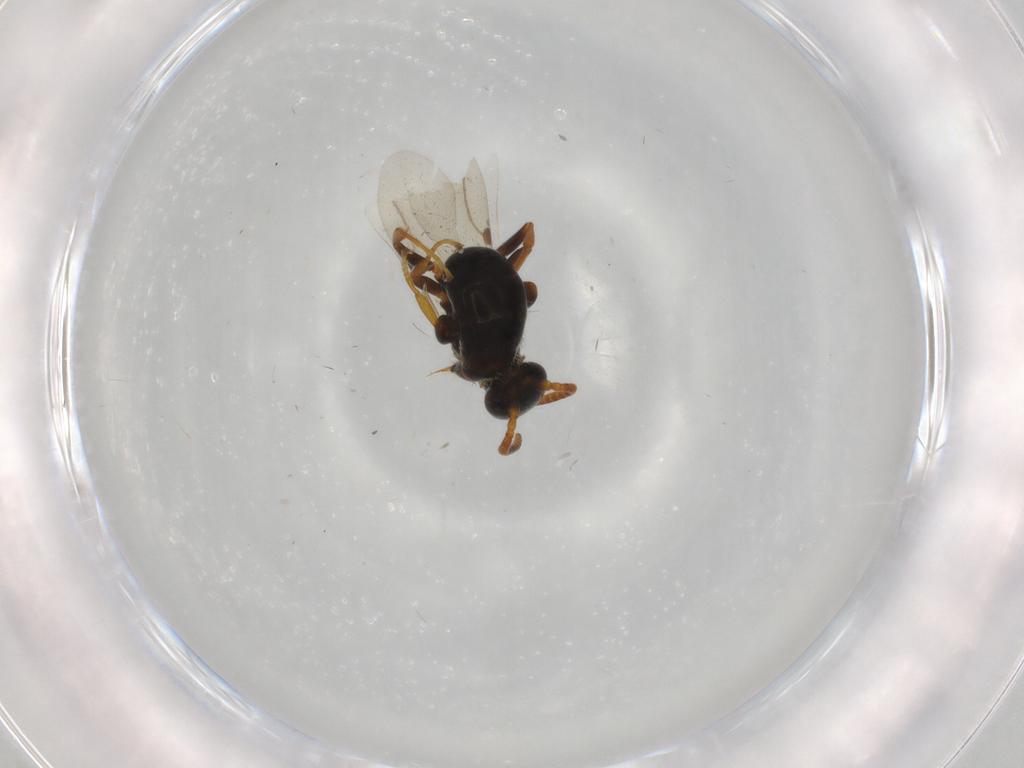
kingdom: Animalia
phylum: Arthropoda
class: Insecta
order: Hymenoptera
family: Bethylidae
